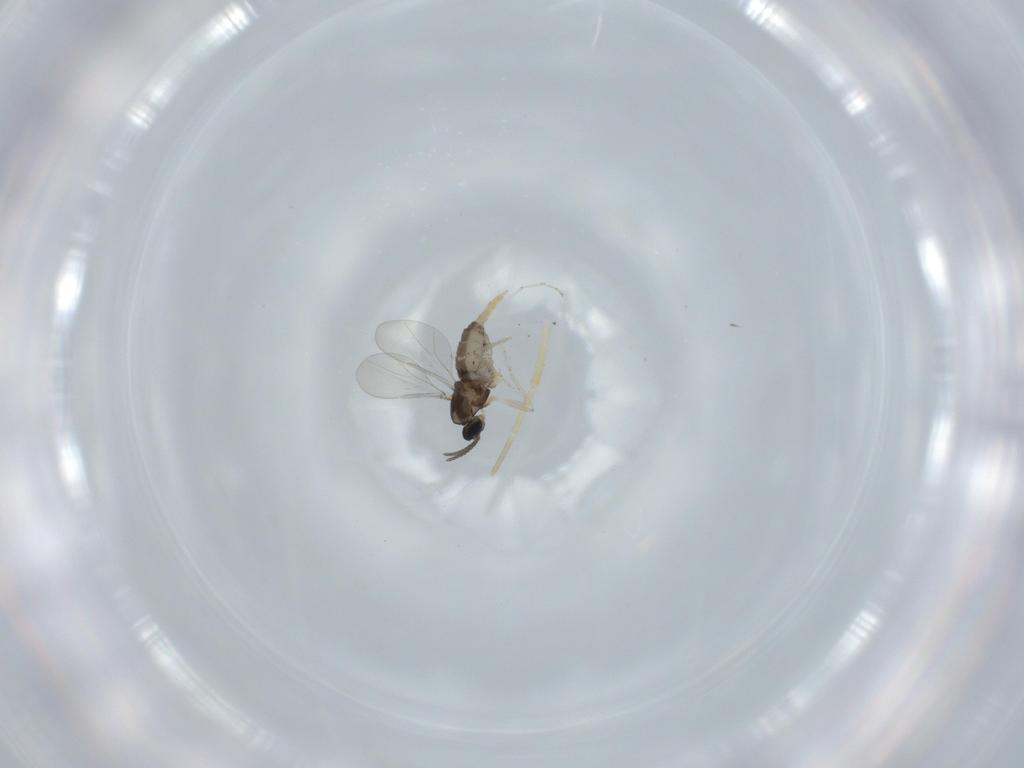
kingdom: Animalia
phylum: Arthropoda
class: Insecta
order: Diptera
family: Cecidomyiidae
